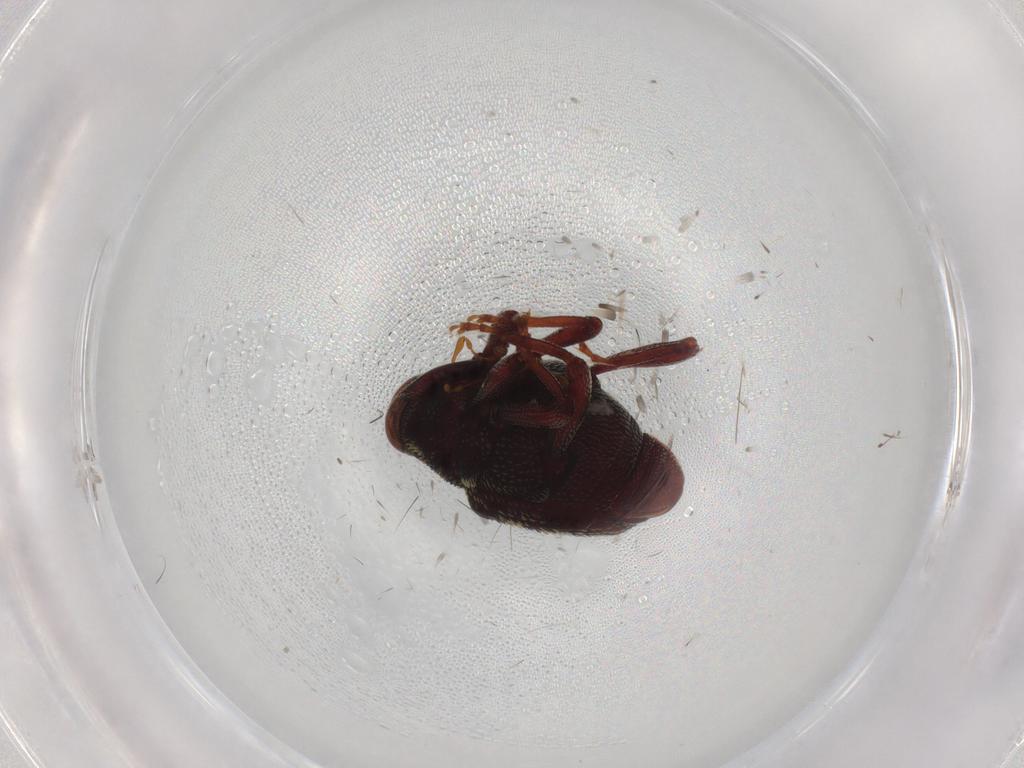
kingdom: Animalia
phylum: Arthropoda
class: Insecta
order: Coleoptera
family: Curculionidae
